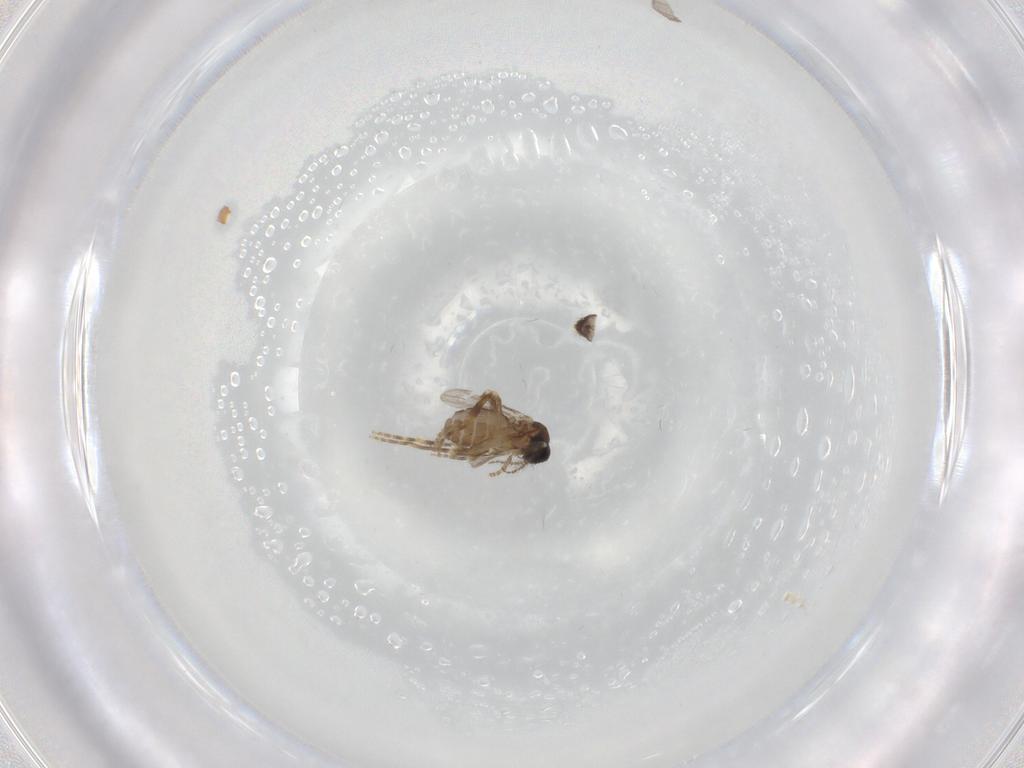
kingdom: Animalia
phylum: Arthropoda
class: Insecta
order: Diptera
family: Ceratopogonidae
